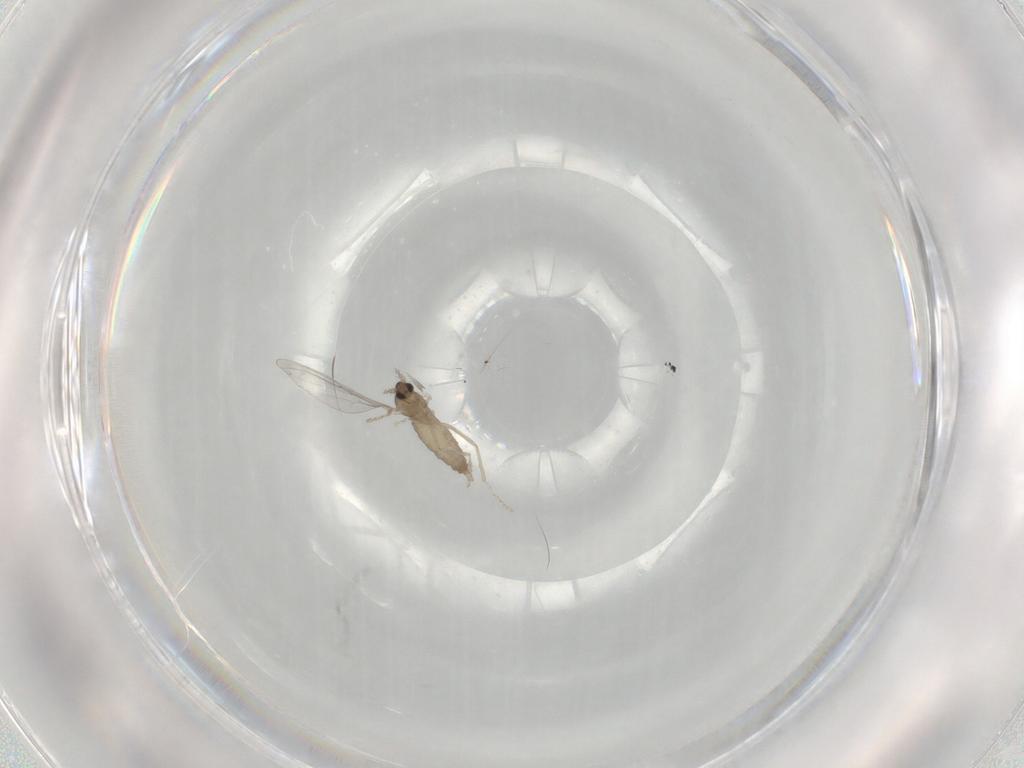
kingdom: Animalia
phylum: Arthropoda
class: Insecta
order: Diptera
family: Cecidomyiidae
